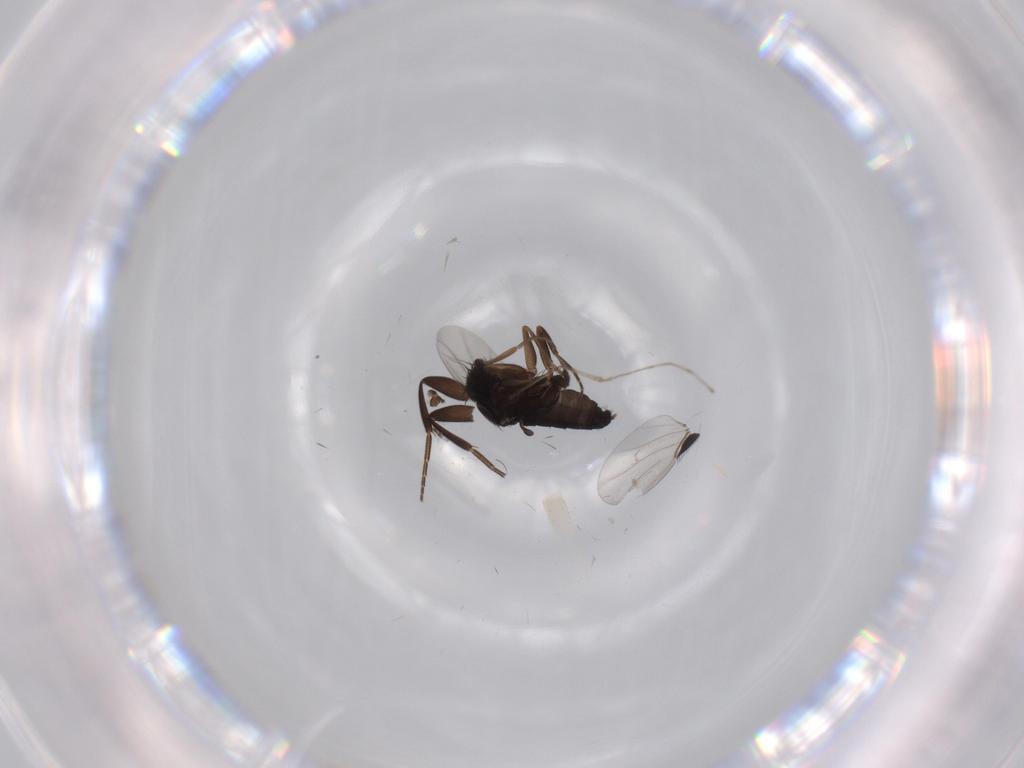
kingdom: Animalia
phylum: Arthropoda
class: Insecta
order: Diptera
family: Phoridae
